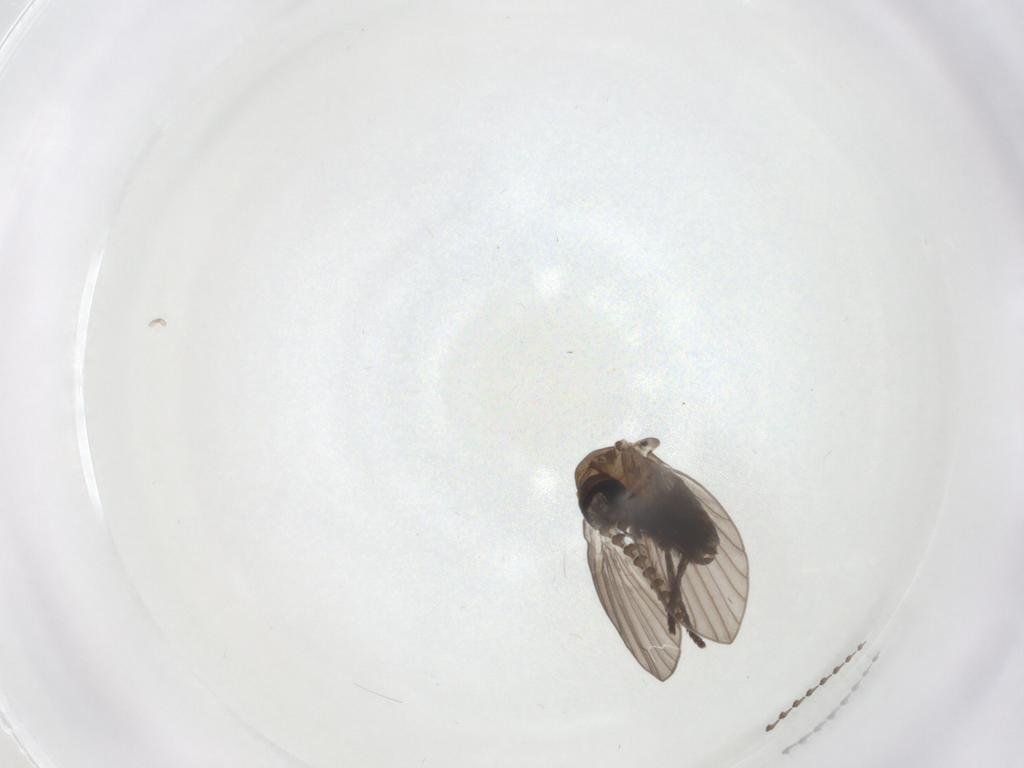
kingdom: Animalia
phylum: Arthropoda
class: Insecta
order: Diptera
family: Psychodidae
